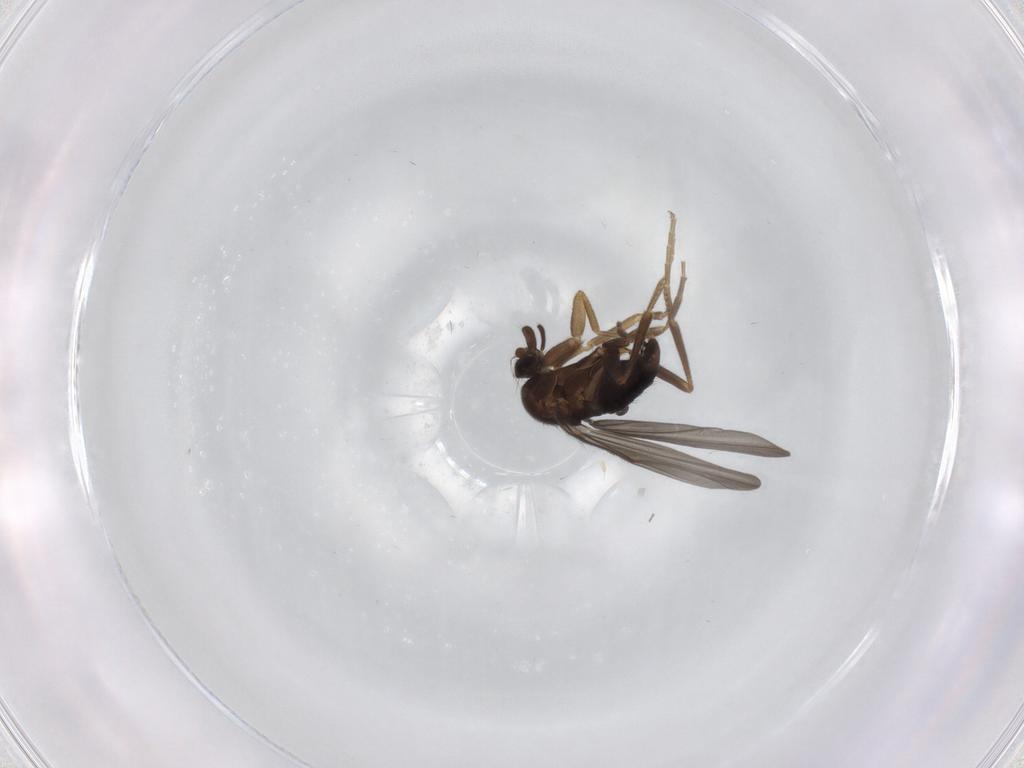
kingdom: Animalia
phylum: Arthropoda
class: Insecta
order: Diptera
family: Chironomidae
